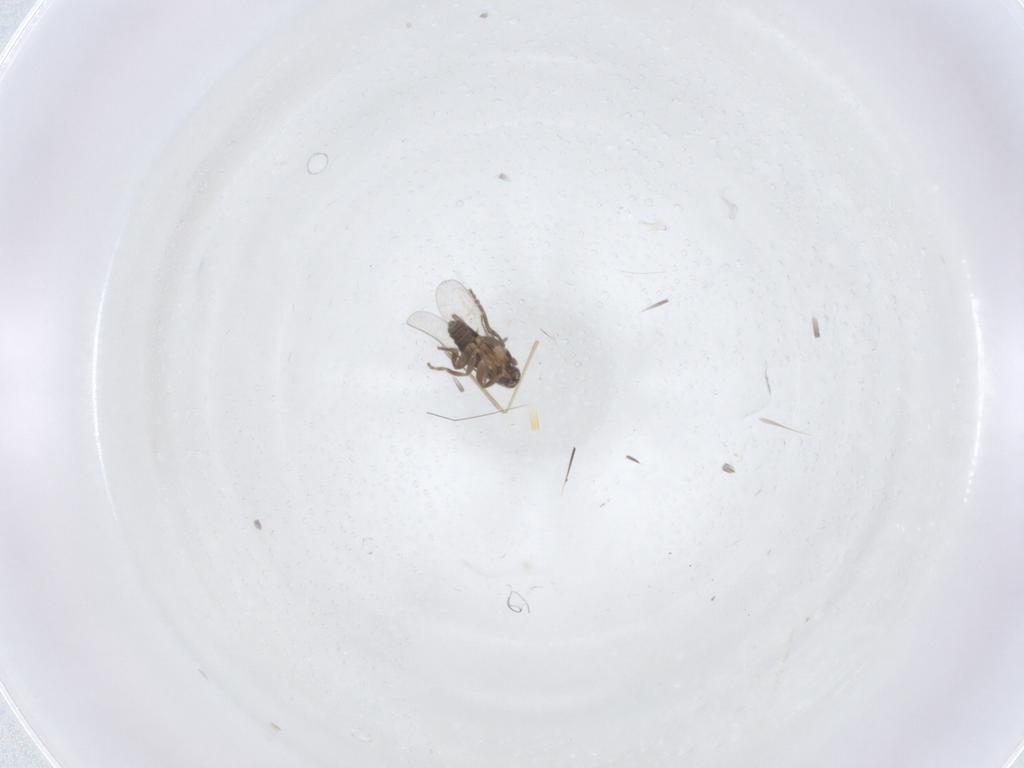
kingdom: Animalia
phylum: Arthropoda
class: Insecta
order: Diptera
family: Cecidomyiidae
